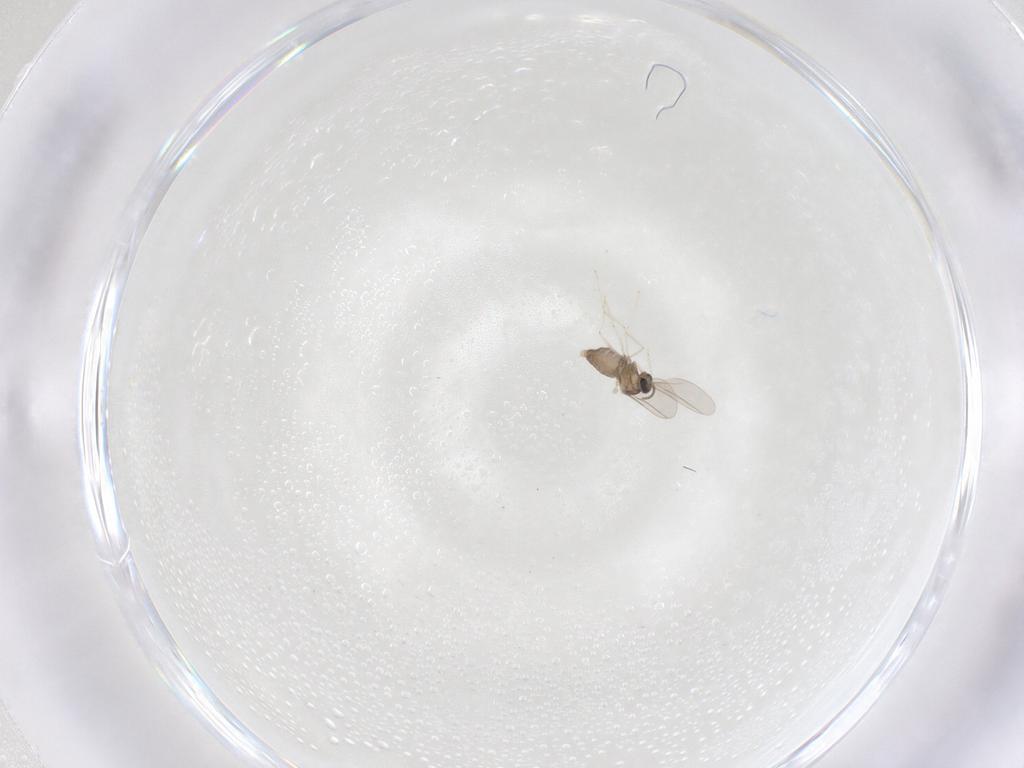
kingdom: Animalia
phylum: Arthropoda
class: Insecta
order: Diptera
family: Cecidomyiidae
